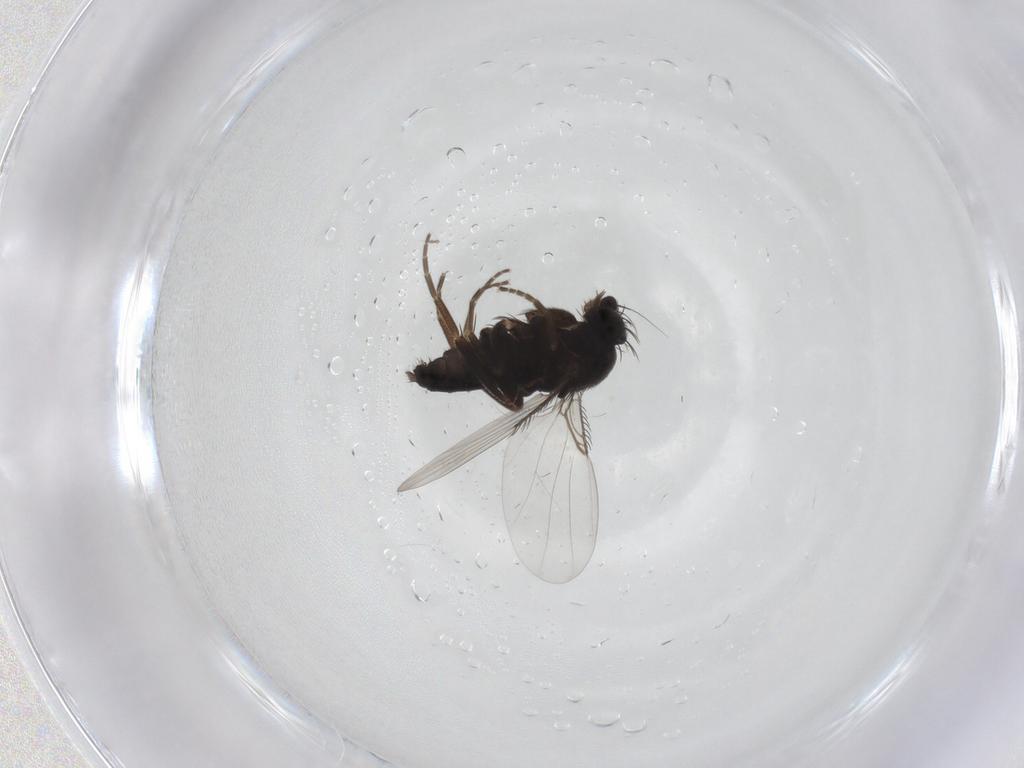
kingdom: Animalia
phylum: Arthropoda
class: Insecta
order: Diptera
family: Phoridae
